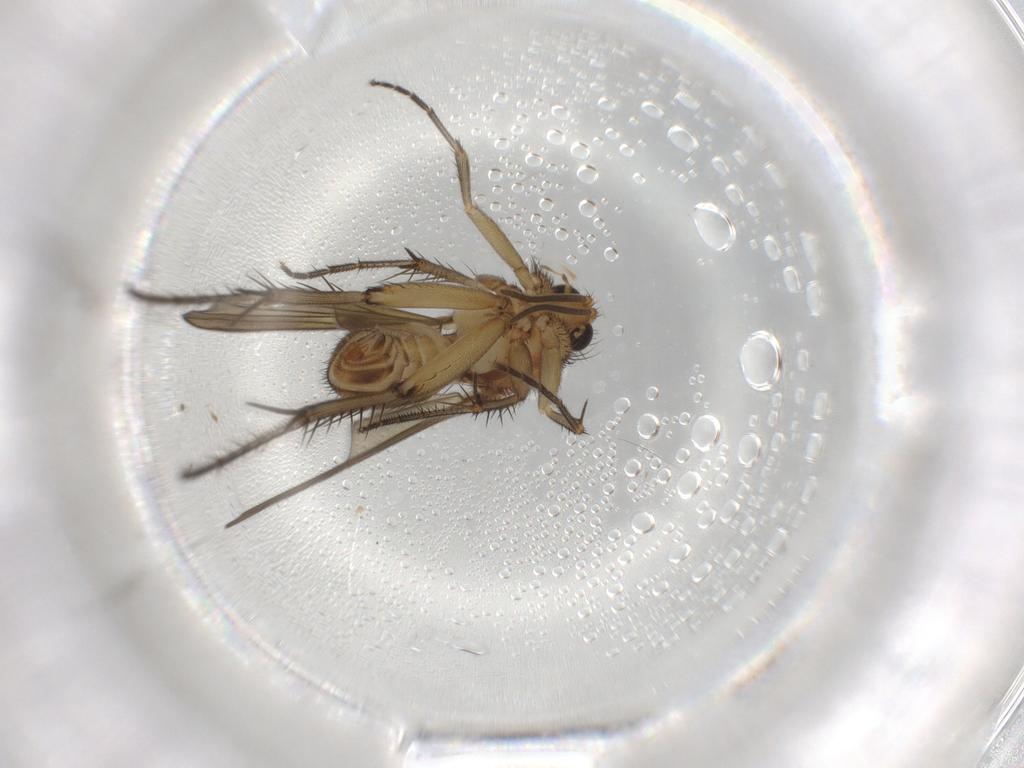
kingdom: Animalia
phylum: Arthropoda
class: Insecta
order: Diptera
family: Mycetophilidae
